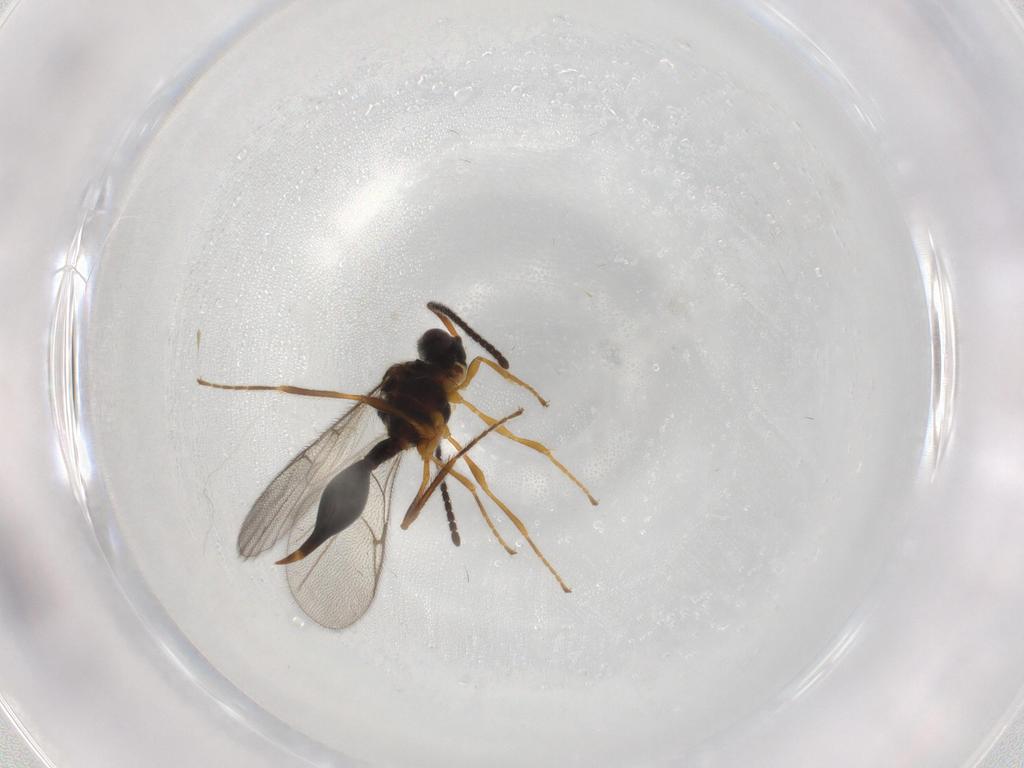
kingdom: Animalia
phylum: Arthropoda
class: Insecta
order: Hymenoptera
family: Diapriidae
